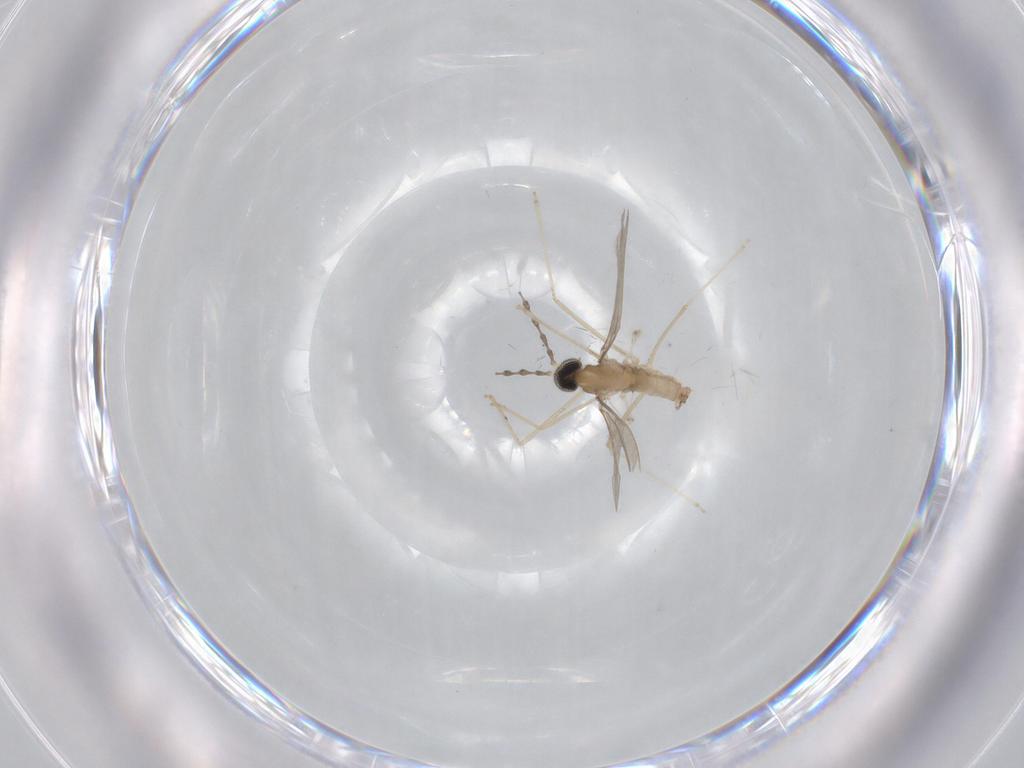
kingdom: Animalia
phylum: Arthropoda
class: Insecta
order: Diptera
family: Cecidomyiidae
